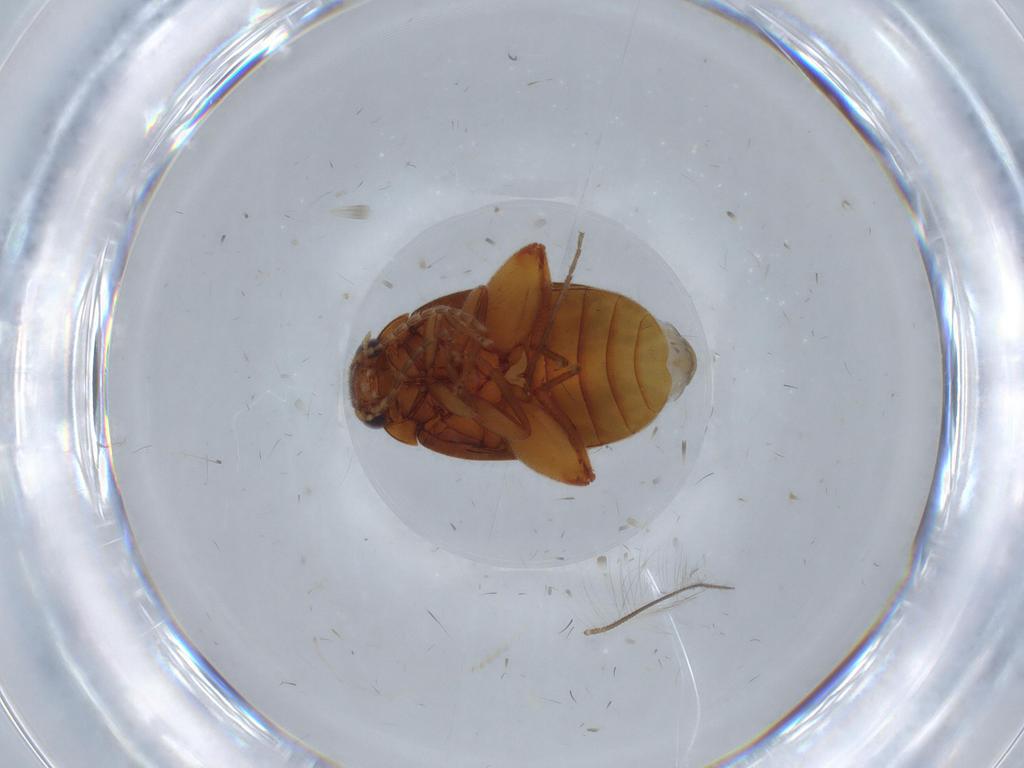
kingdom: Animalia
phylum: Arthropoda
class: Insecta
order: Coleoptera
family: Scirtidae
